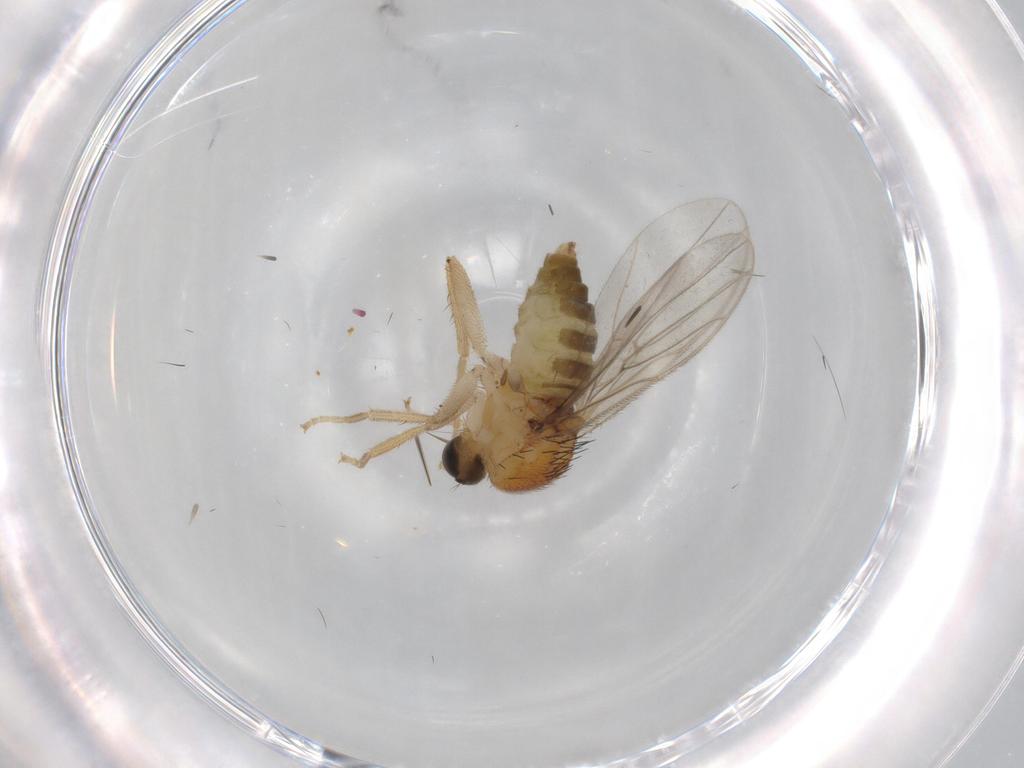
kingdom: Animalia
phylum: Arthropoda
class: Insecta
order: Diptera
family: Hybotidae
